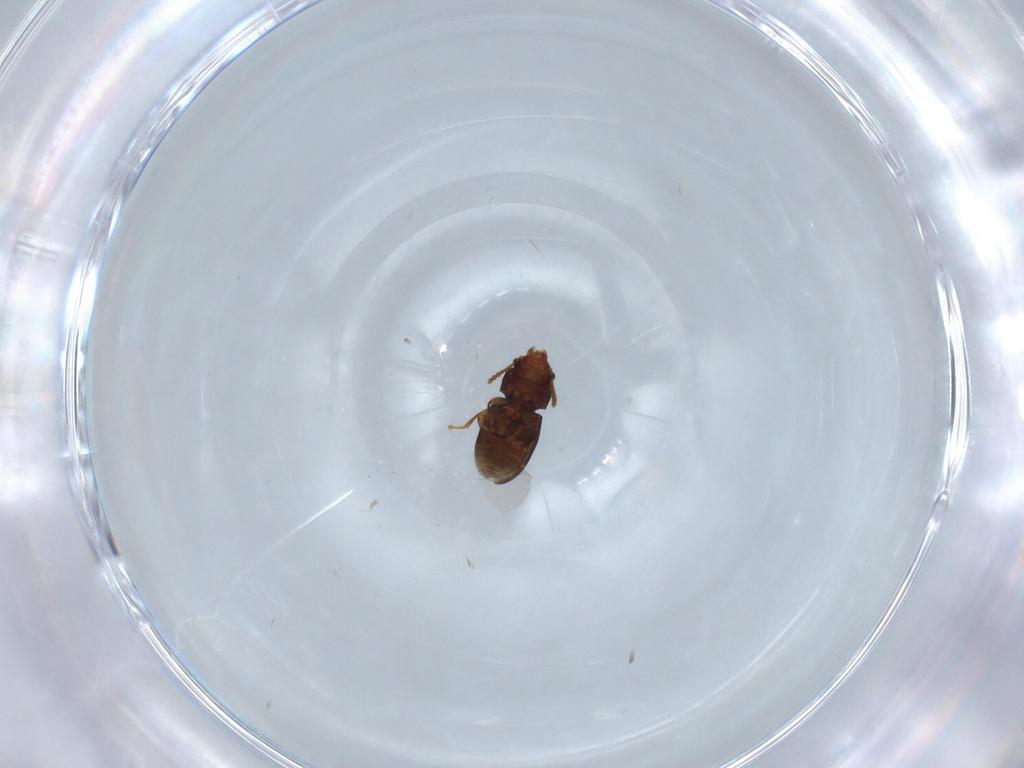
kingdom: Animalia
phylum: Arthropoda
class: Insecta
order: Coleoptera
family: Salpingidae
